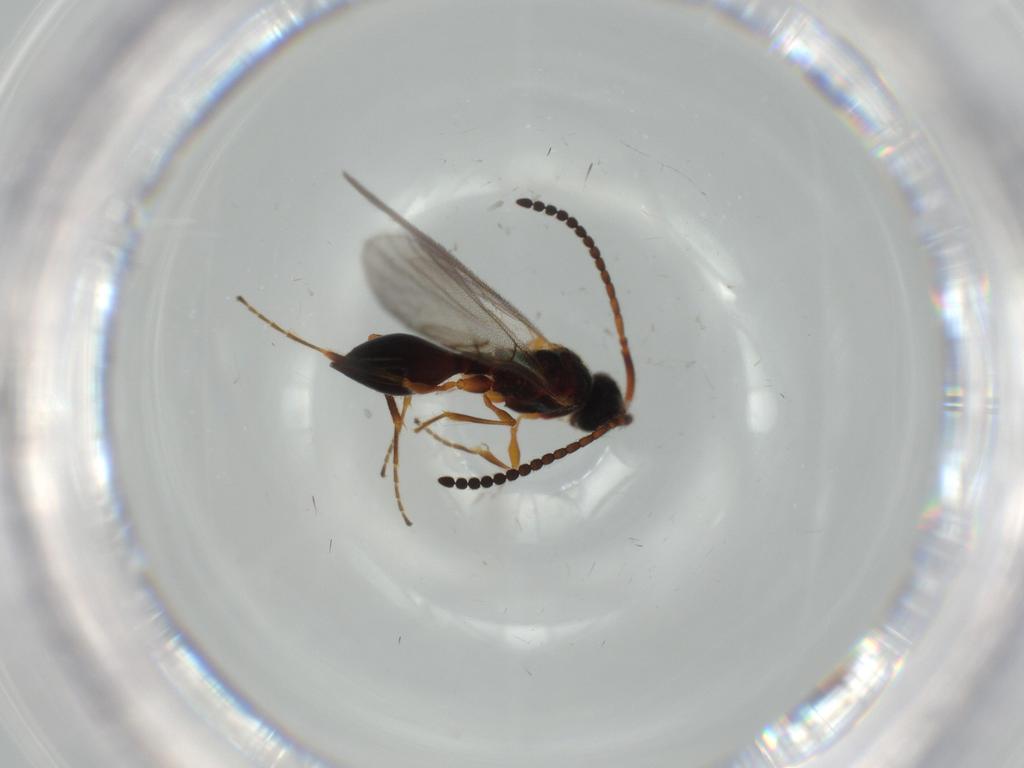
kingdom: Animalia
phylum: Arthropoda
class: Insecta
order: Hymenoptera
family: Diapriidae
